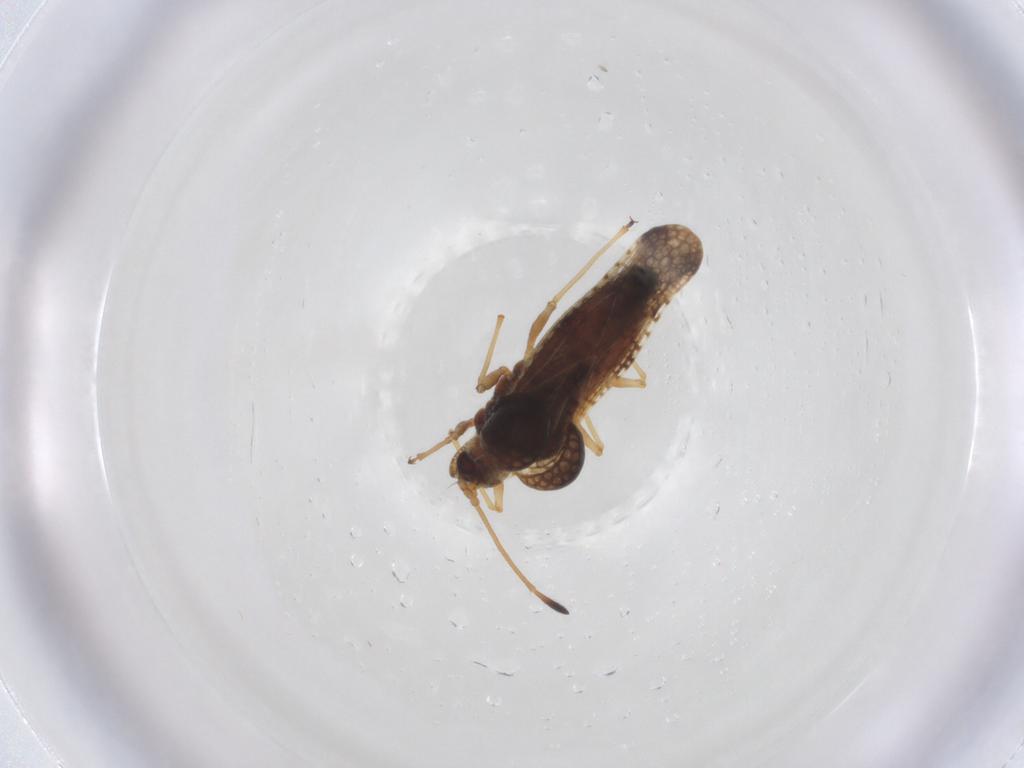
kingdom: Animalia
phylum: Arthropoda
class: Insecta
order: Hemiptera
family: Tingidae
